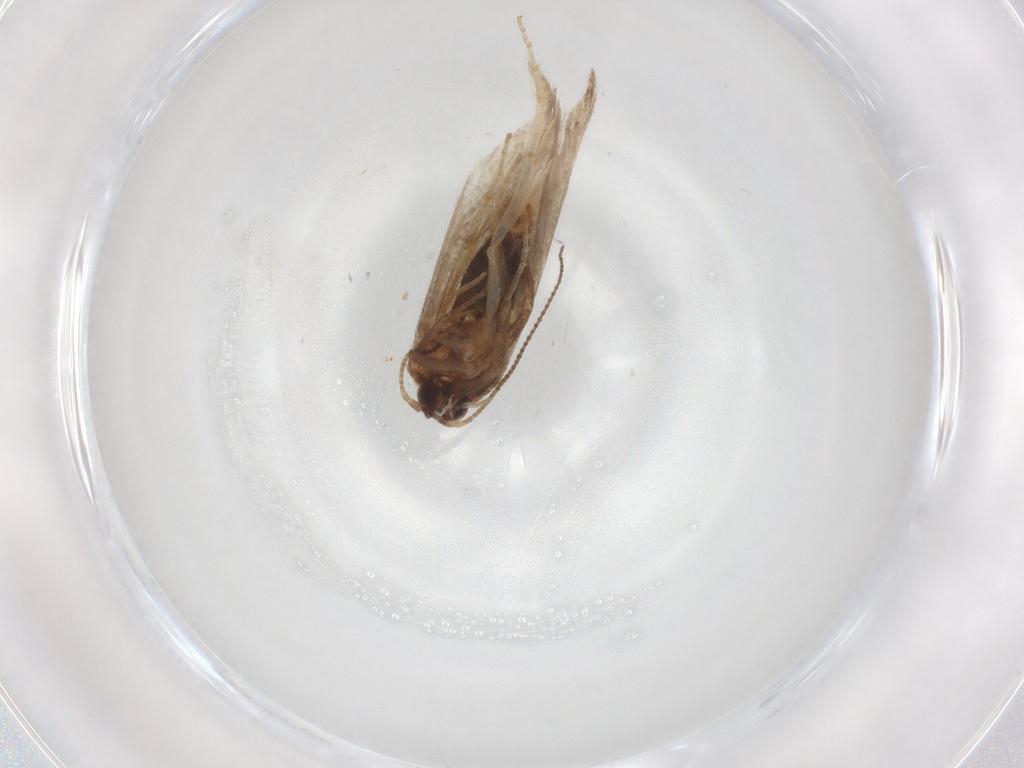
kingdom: Animalia
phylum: Arthropoda
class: Insecta
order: Lepidoptera
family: Nepticulidae
